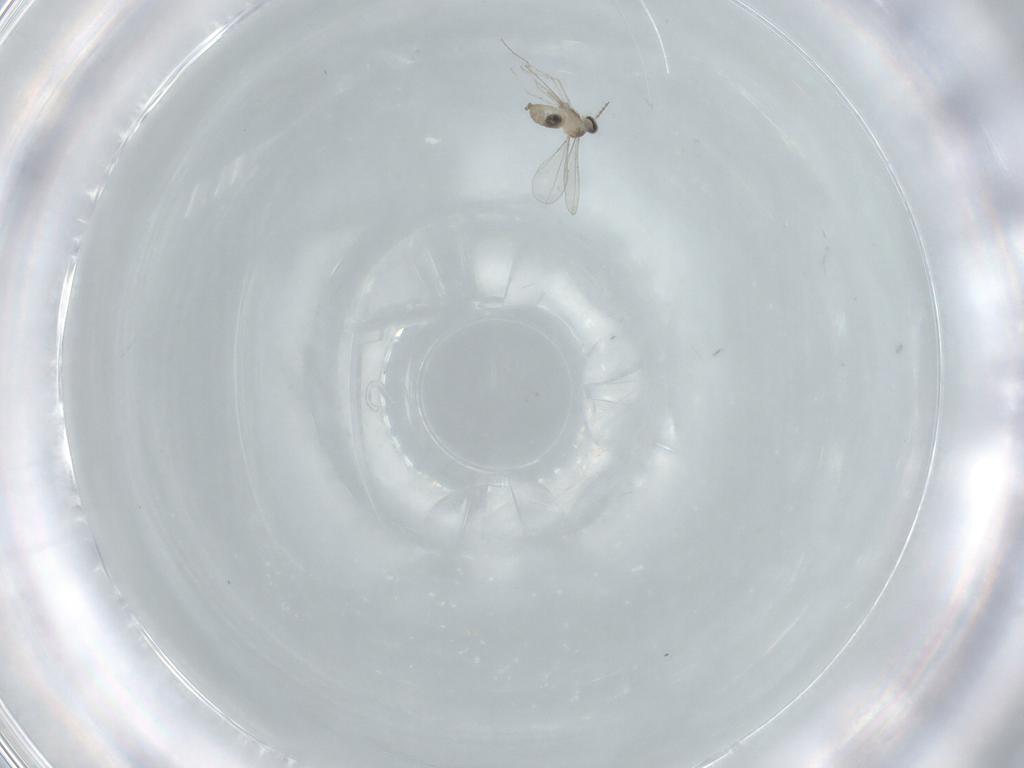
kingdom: Animalia
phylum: Arthropoda
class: Insecta
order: Diptera
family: Cecidomyiidae
